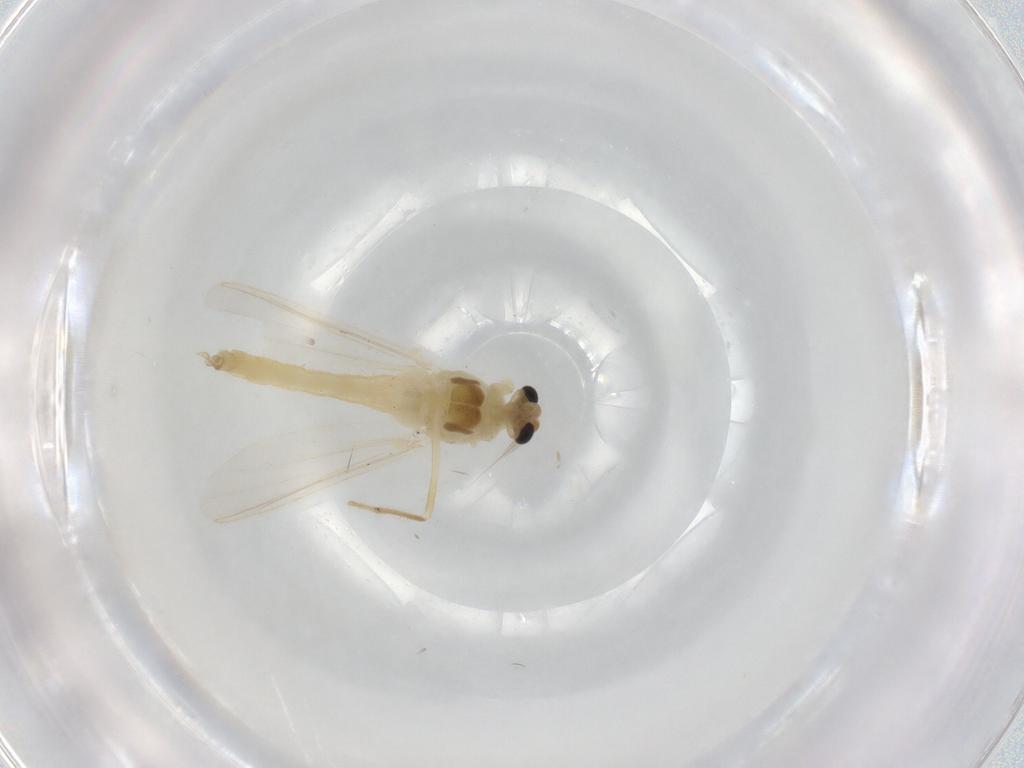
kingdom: Animalia
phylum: Arthropoda
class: Insecta
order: Diptera
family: Chironomidae
